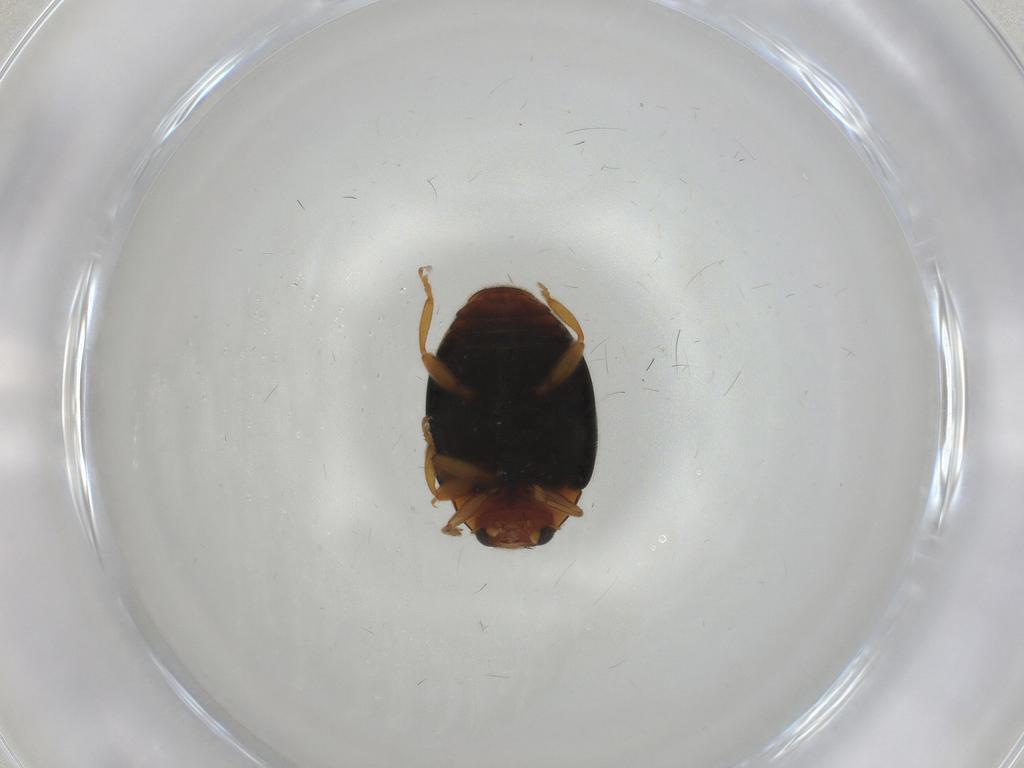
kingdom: Animalia
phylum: Arthropoda
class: Insecta
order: Coleoptera
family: Coccinellidae
